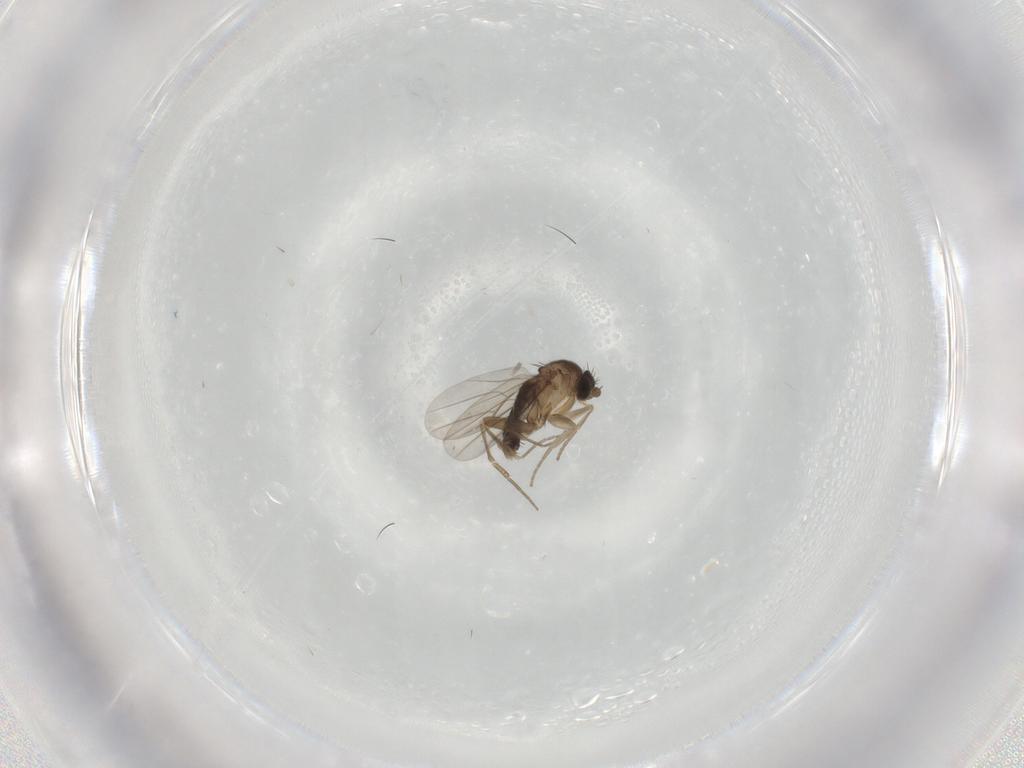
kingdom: Animalia
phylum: Arthropoda
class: Insecta
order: Diptera
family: Phoridae
